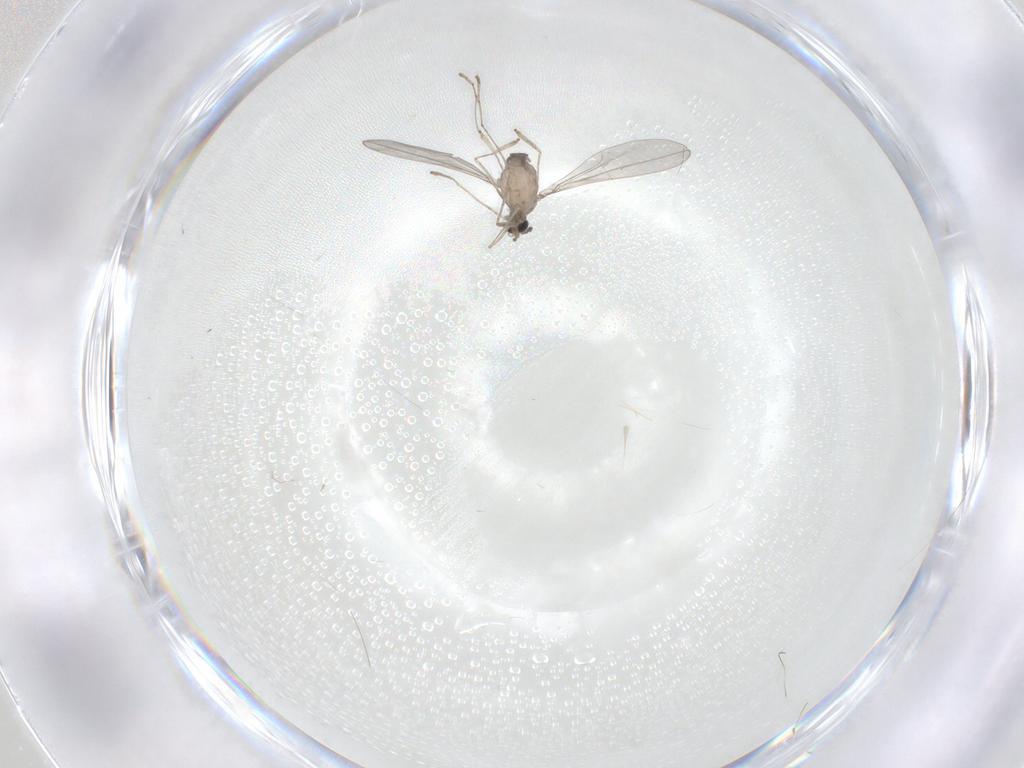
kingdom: Animalia
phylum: Arthropoda
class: Insecta
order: Diptera
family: Cecidomyiidae
